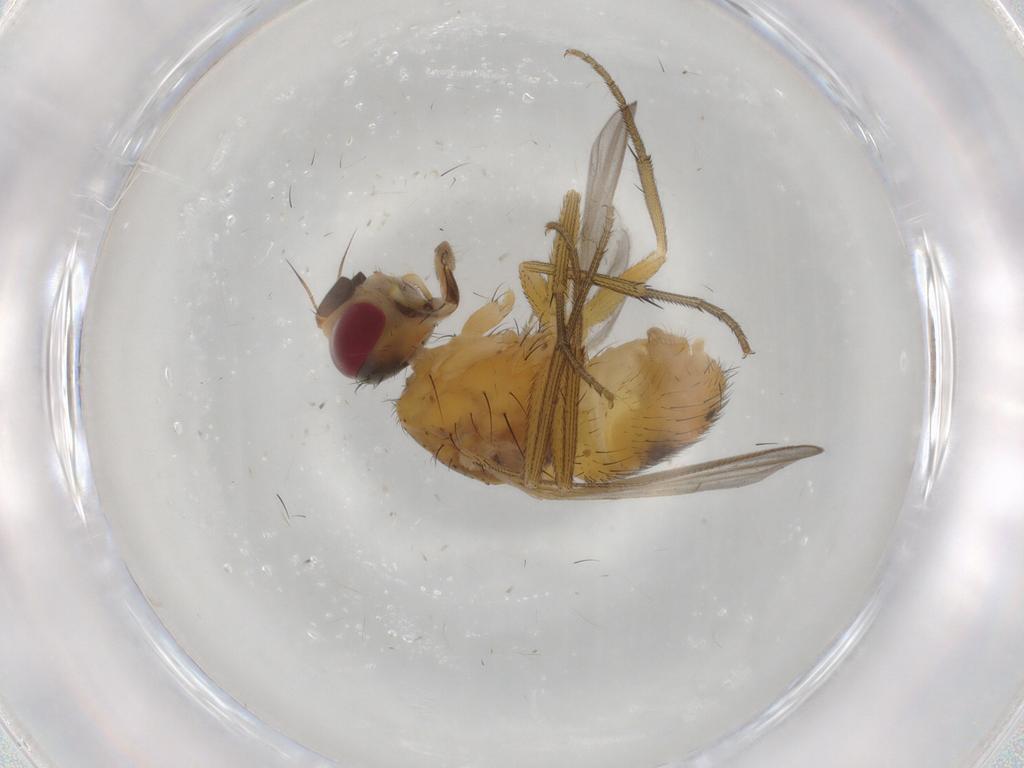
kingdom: Animalia
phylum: Arthropoda
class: Insecta
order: Diptera
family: Muscidae
